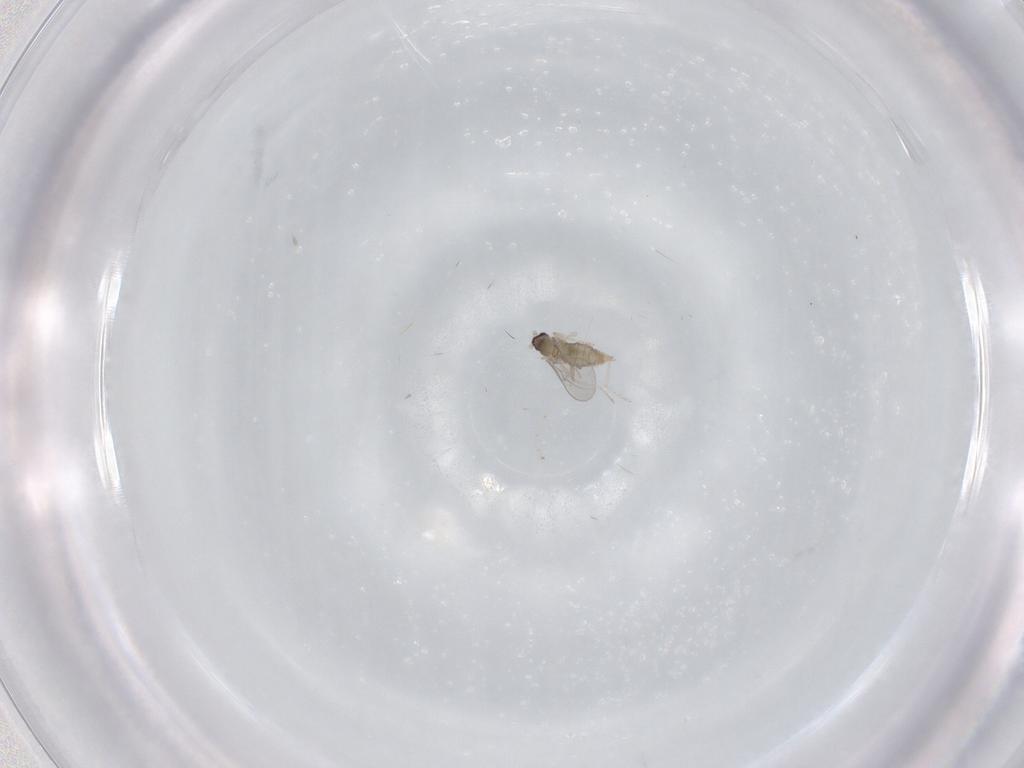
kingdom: Animalia
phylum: Arthropoda
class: Insecta
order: Diptera
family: Cecidomyiidae
